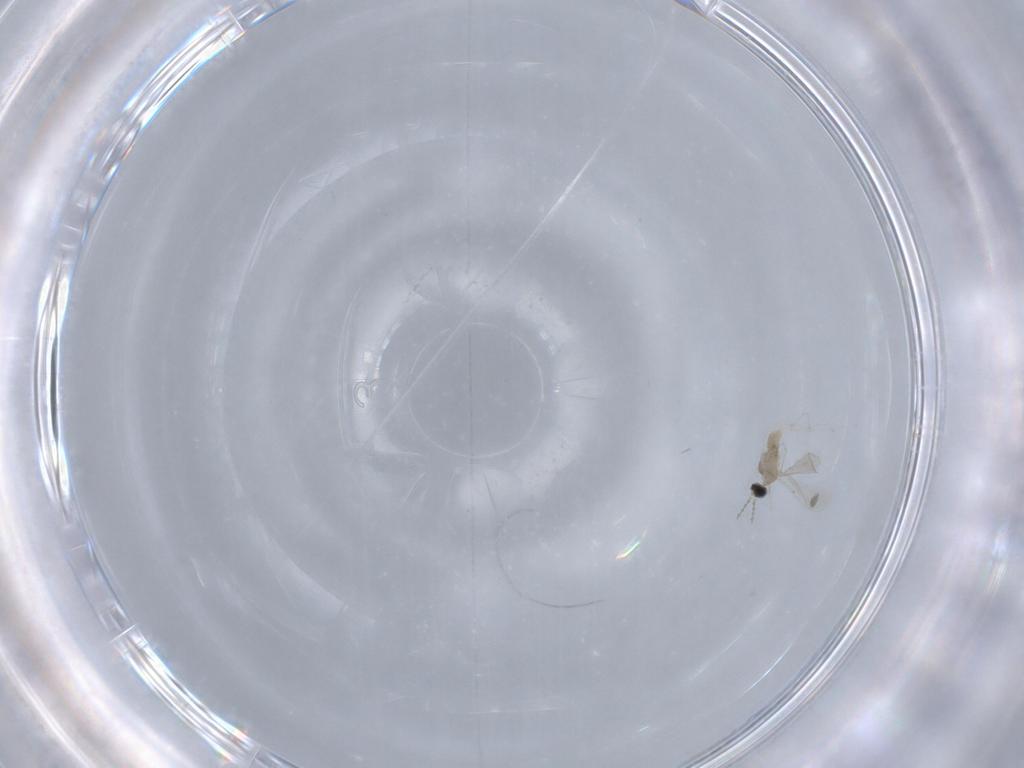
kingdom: Animalia
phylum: Arthropoda
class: Insecta
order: Diptera
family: Cecidomyiidae
